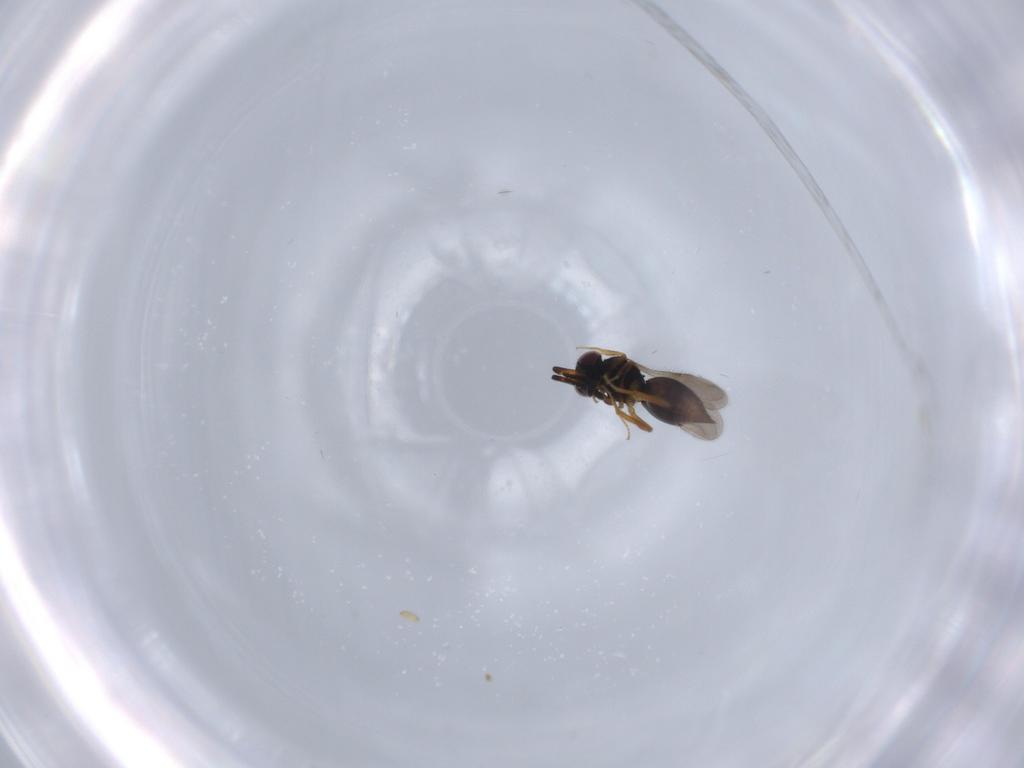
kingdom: Animalia
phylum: Arthropoda
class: Insecta
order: Hymenoptera
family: Ceraphronidae
